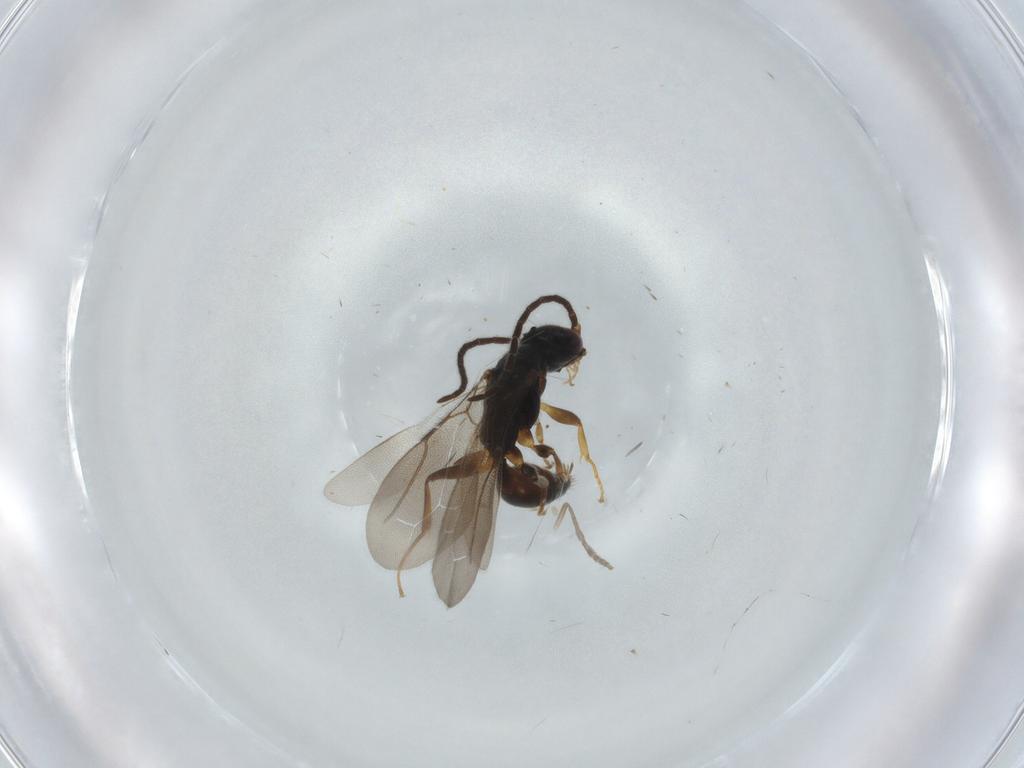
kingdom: Animalia
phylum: Arthropoda
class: Insecta
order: Hymenoptera
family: Bethylidae
